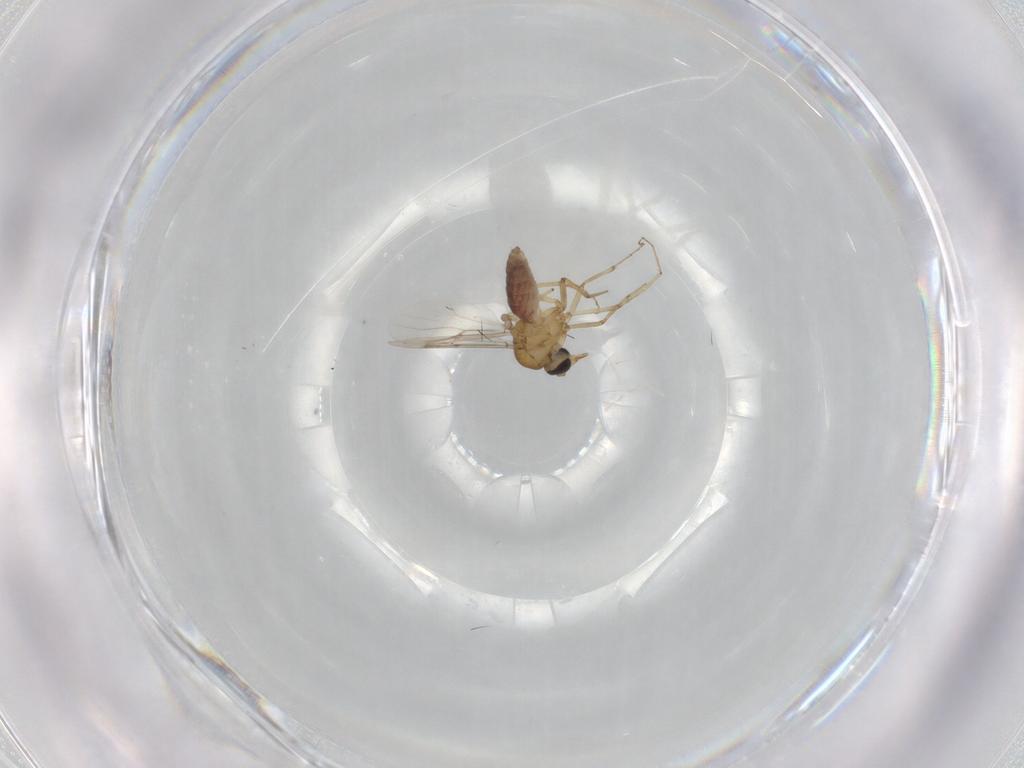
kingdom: Animalia
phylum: Arthropoda
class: Insecta
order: Diptera
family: Ceratopogonidae
